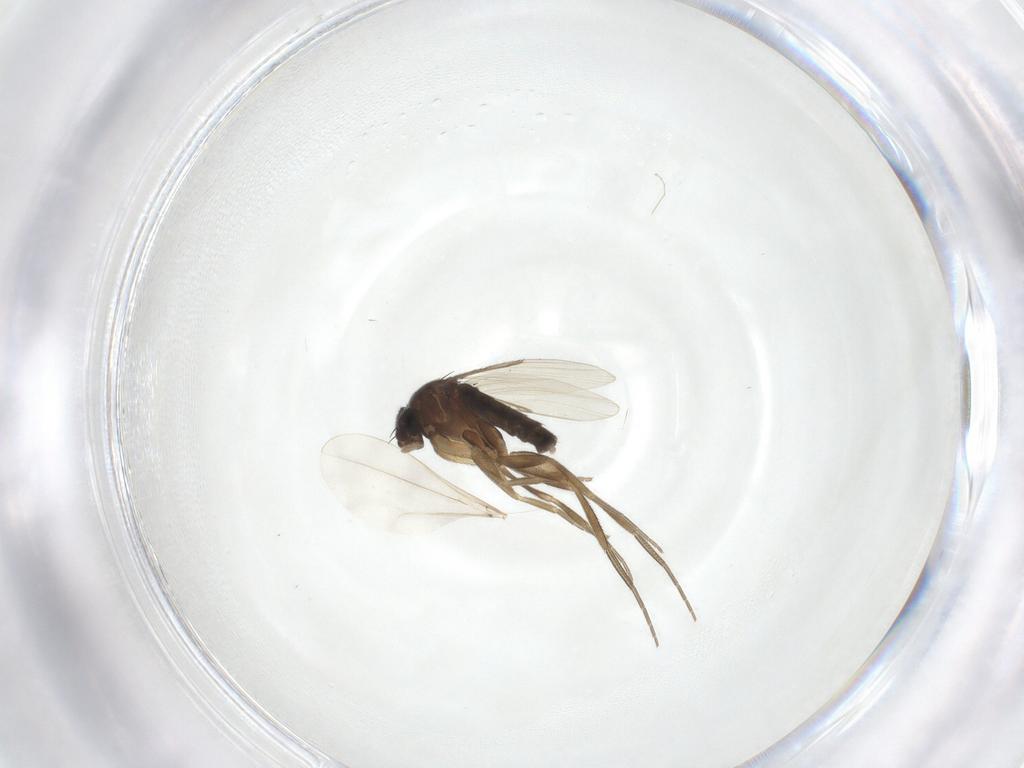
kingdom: Animalia
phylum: Arthropoda
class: Insecta
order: Diptera
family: Phoridae
